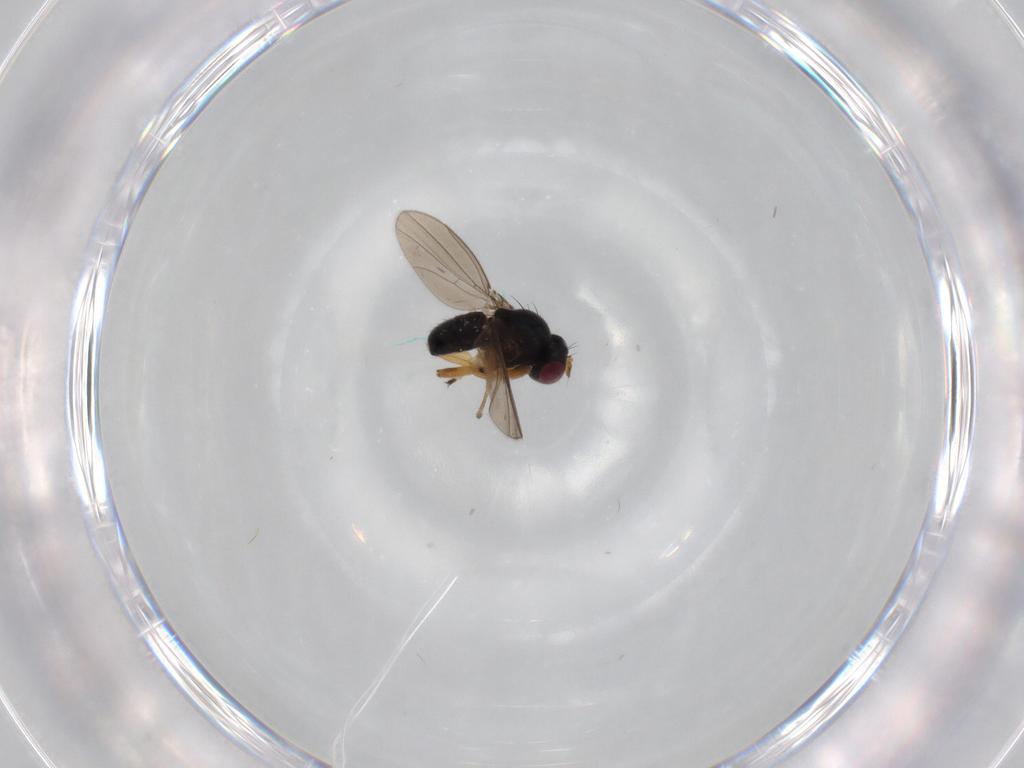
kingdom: Animalia
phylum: Arthropoda
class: Insecta
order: Diptera
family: Ephydridae
